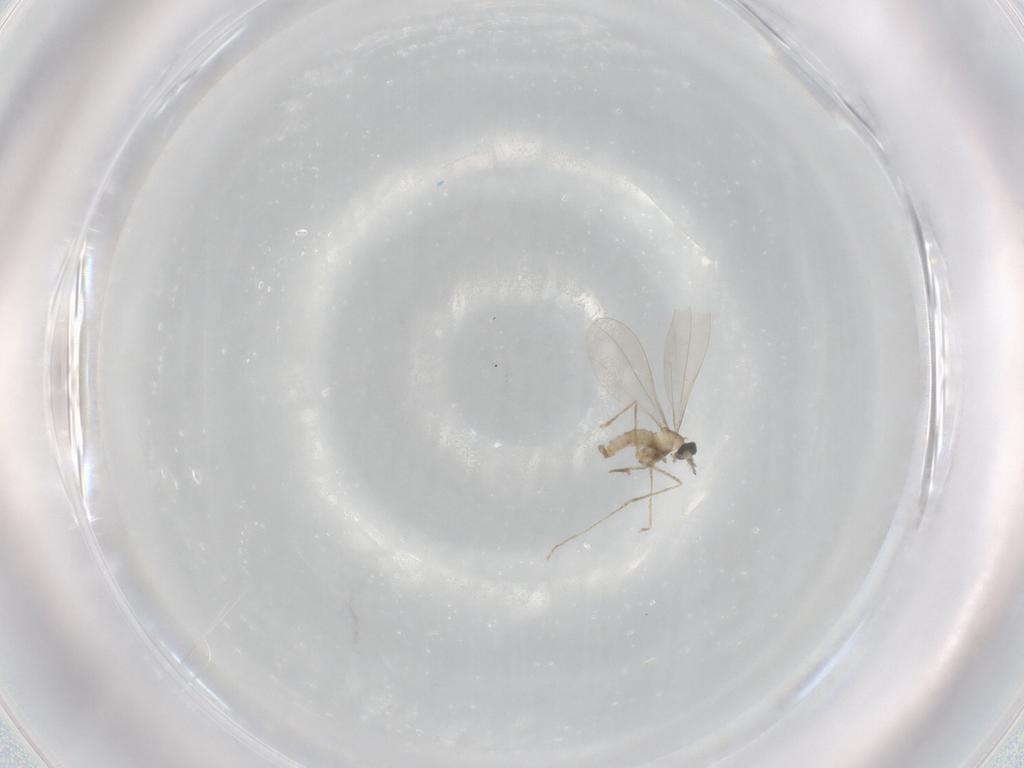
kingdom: Animalia
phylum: Arthropoda
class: Insecta
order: Diptera
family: Cecidomyiidae
